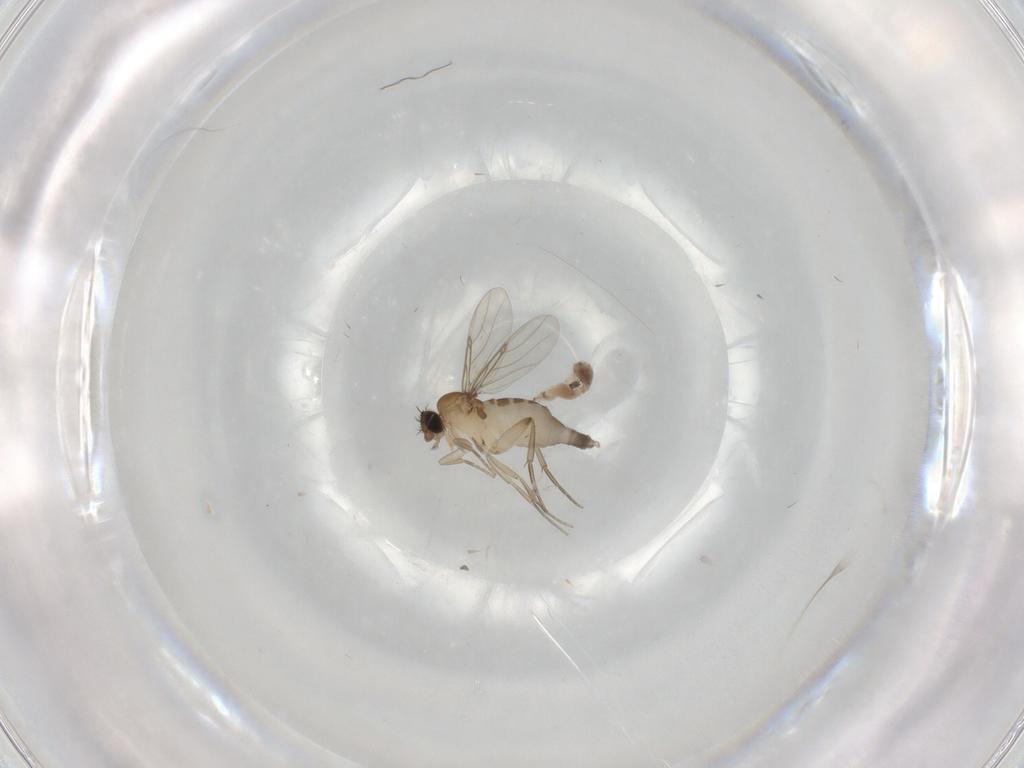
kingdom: Animalia
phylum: Arthropoda
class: Insecta
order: Diptera
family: Phoridae
